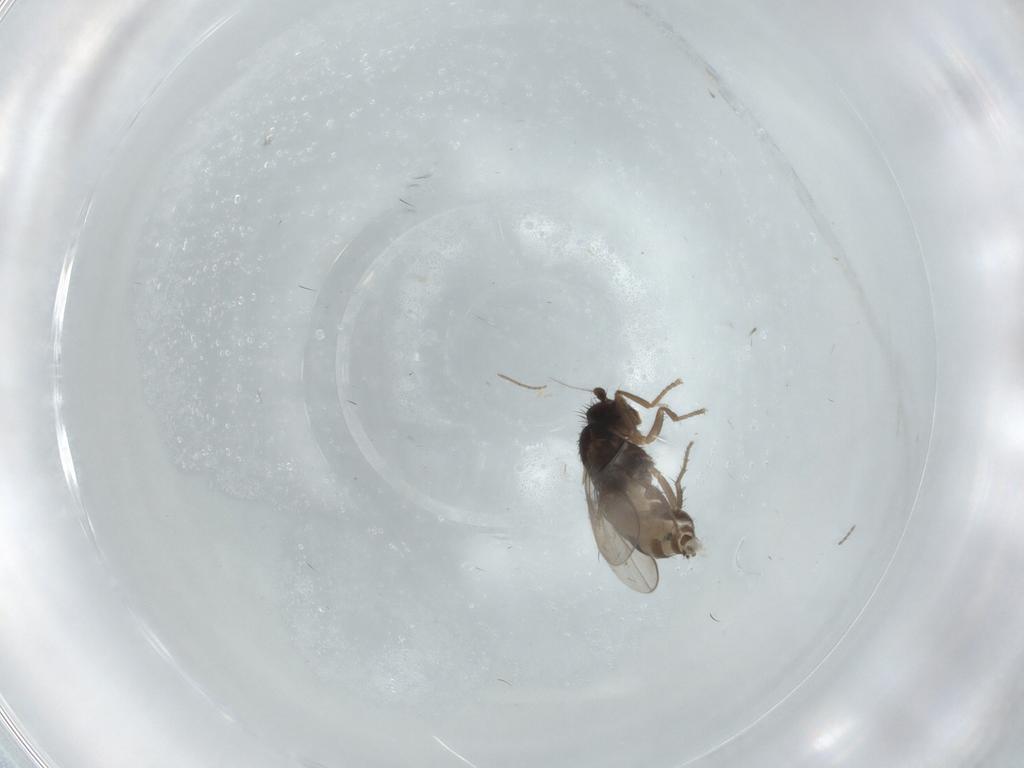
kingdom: Animalia
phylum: Arthropoda
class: Insecta
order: Diptera
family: Sphaeroceridae
